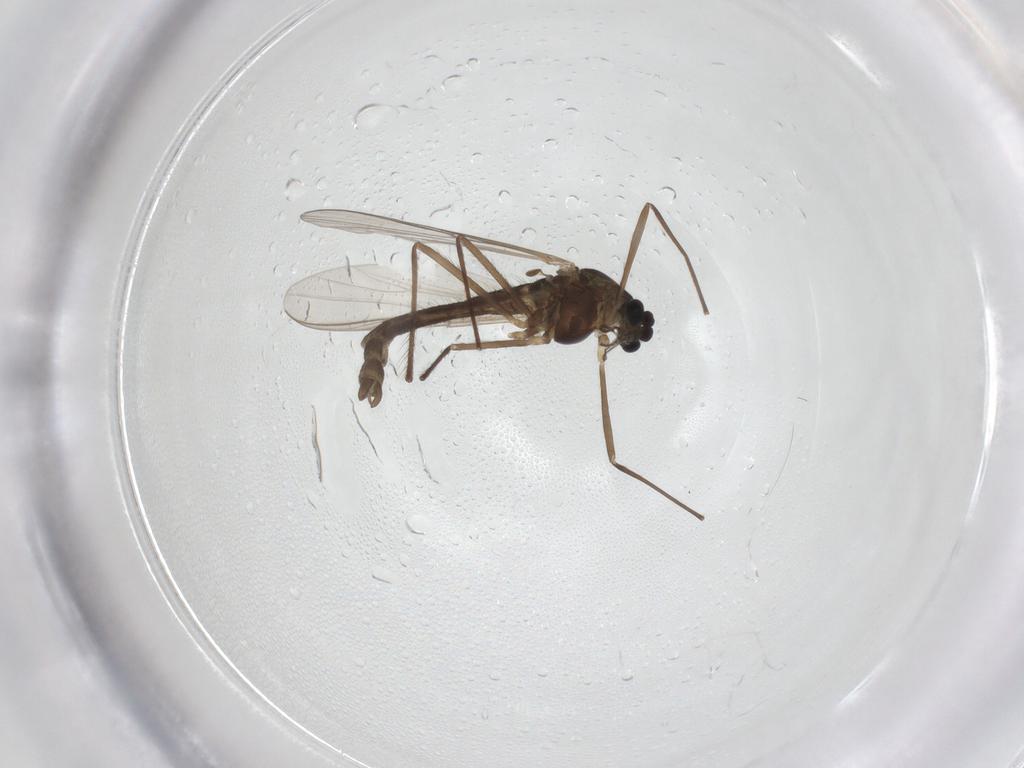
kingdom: Animalia
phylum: Arthropoda
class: Insecta
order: Diptera
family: Chironomidae
